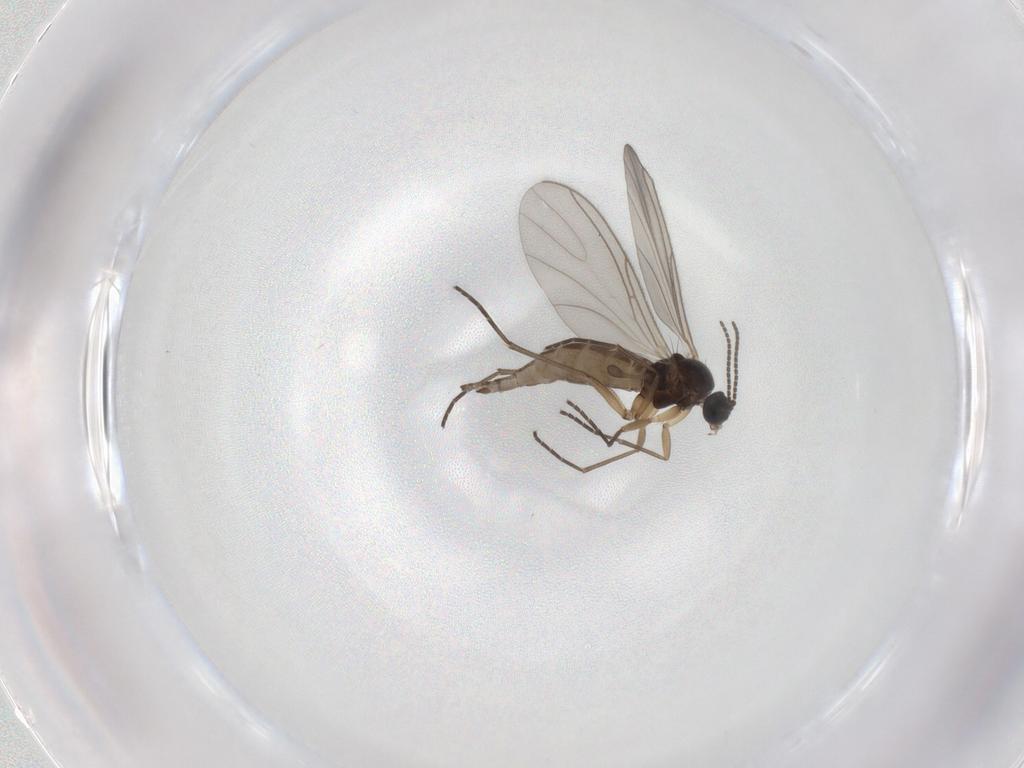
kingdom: Animalia
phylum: Arthropoda
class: Insecta
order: Diptera
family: Sciaridae
